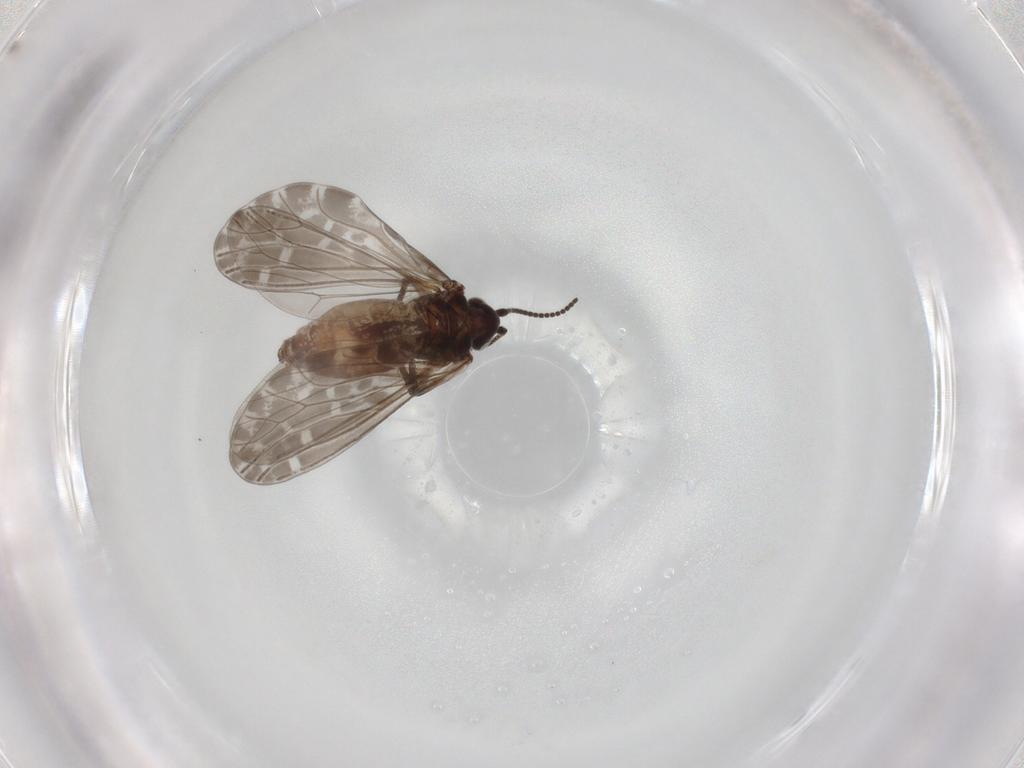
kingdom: Animalia
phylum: Arthropoda
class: Insecta
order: Neuroptera
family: Coniopterygidae
